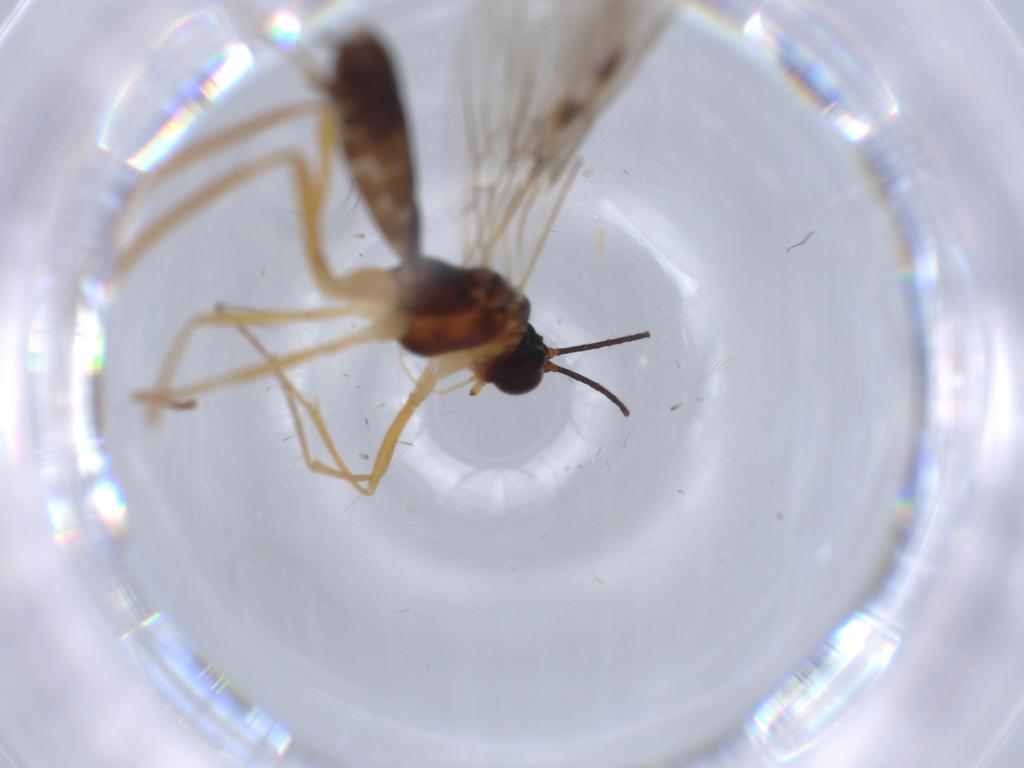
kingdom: Animalia
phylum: Arthropoda
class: Insecta
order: Hymenoptera
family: Braconidae
